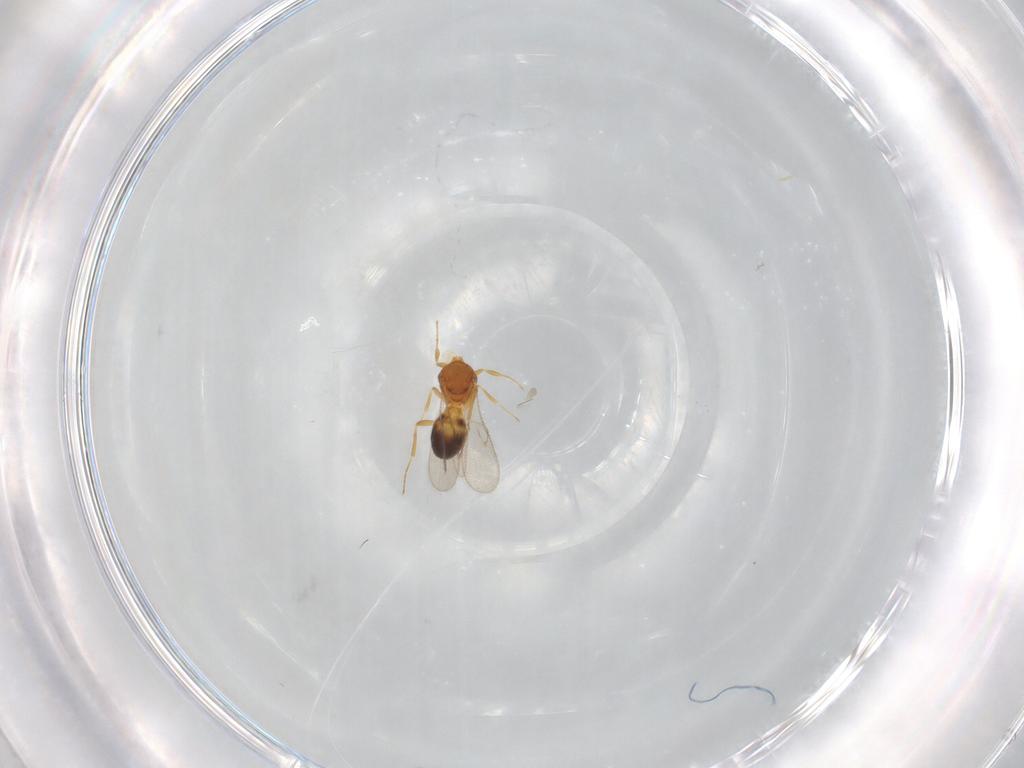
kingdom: Animalia
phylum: Arthropoda
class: Insecta
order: Hymenoptera
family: Scelionidae
